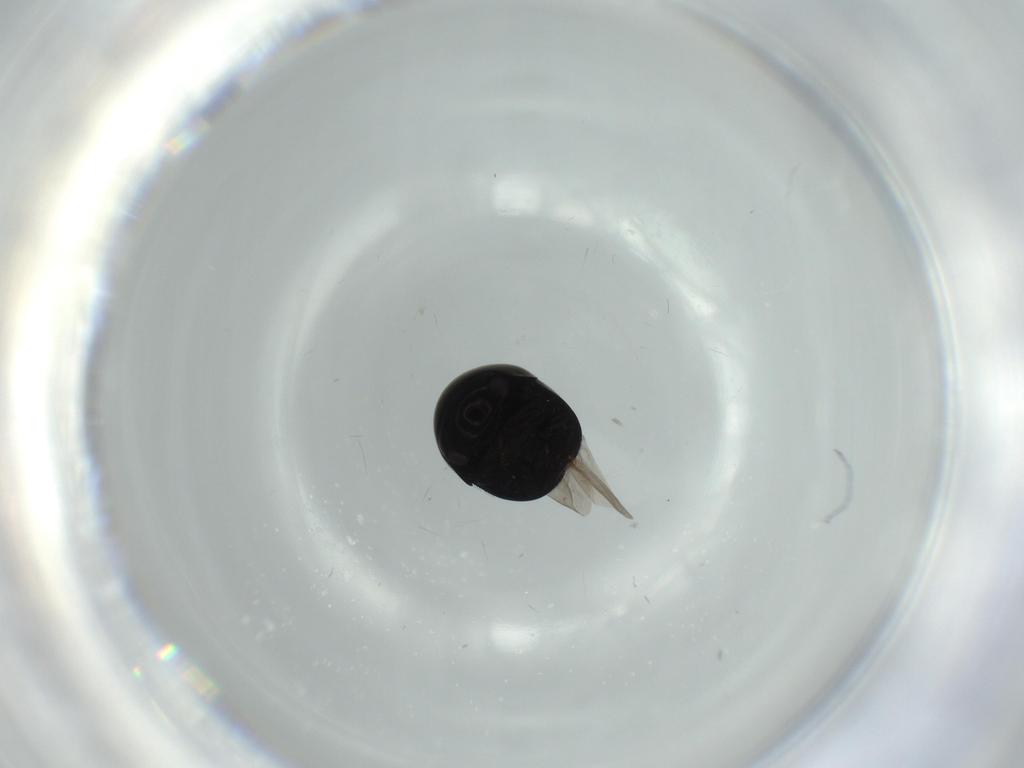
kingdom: Animalia
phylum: Arthropoda
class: Insecta
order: Coleoptera
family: Cybocephalidae
